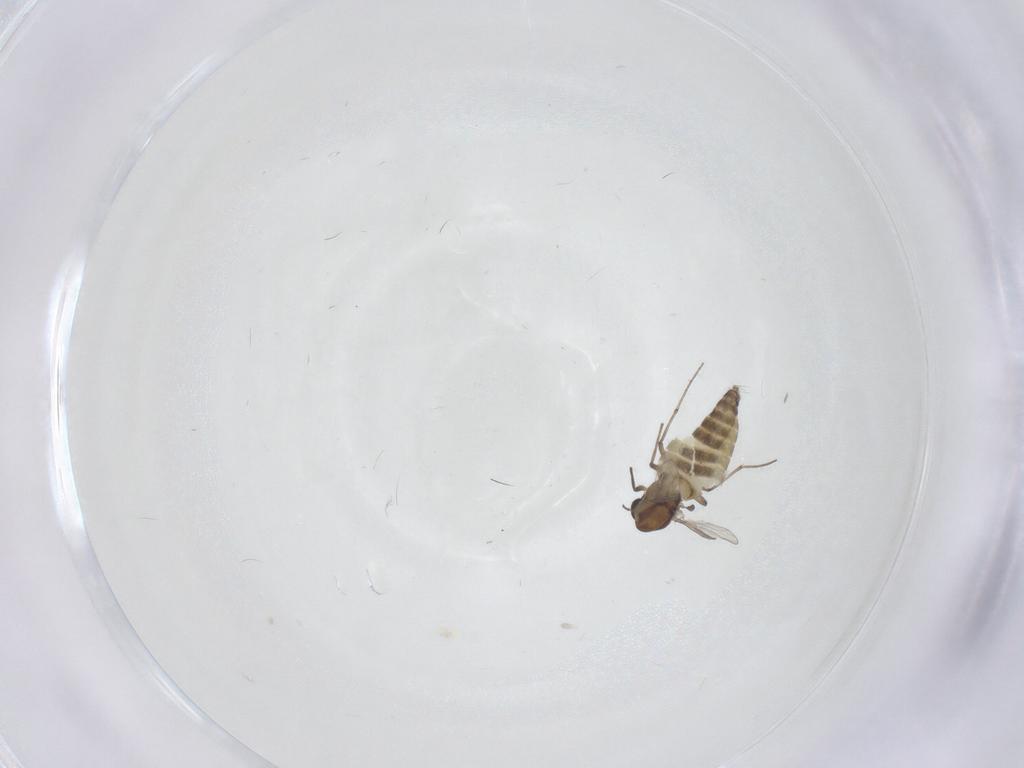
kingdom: Animalia
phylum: Arthropoda
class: Insecta
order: Diptera
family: Chironomidae
